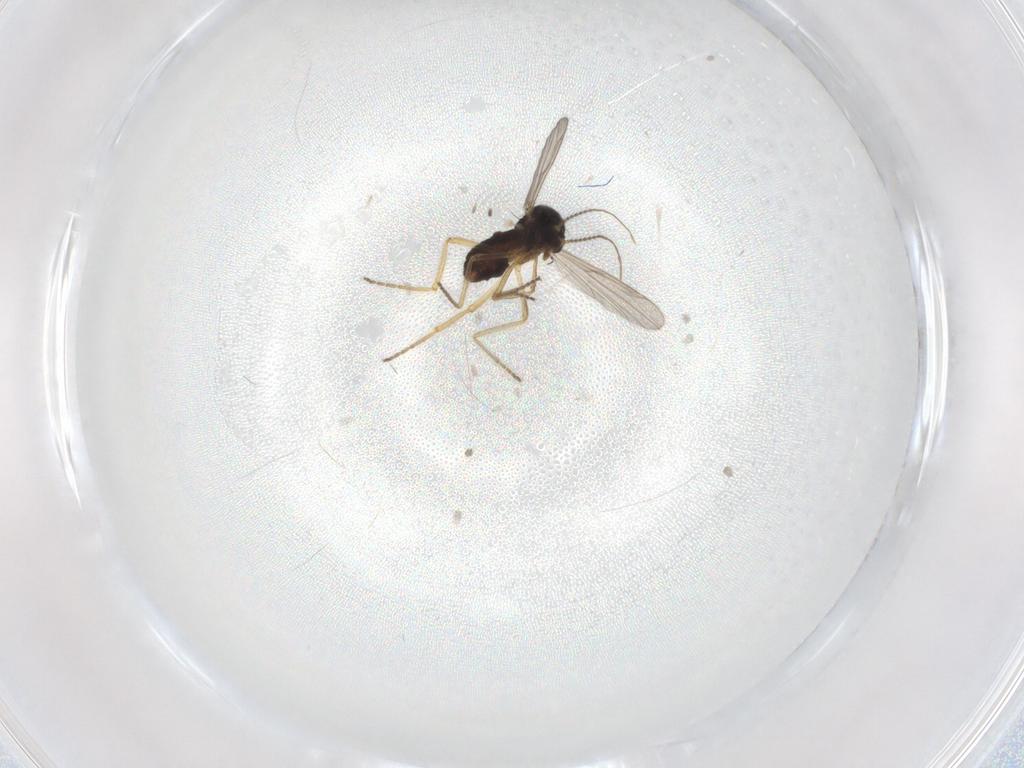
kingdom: Animalia
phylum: Arthropoda
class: Insecta
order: Diptera
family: Ceratopogonidae
